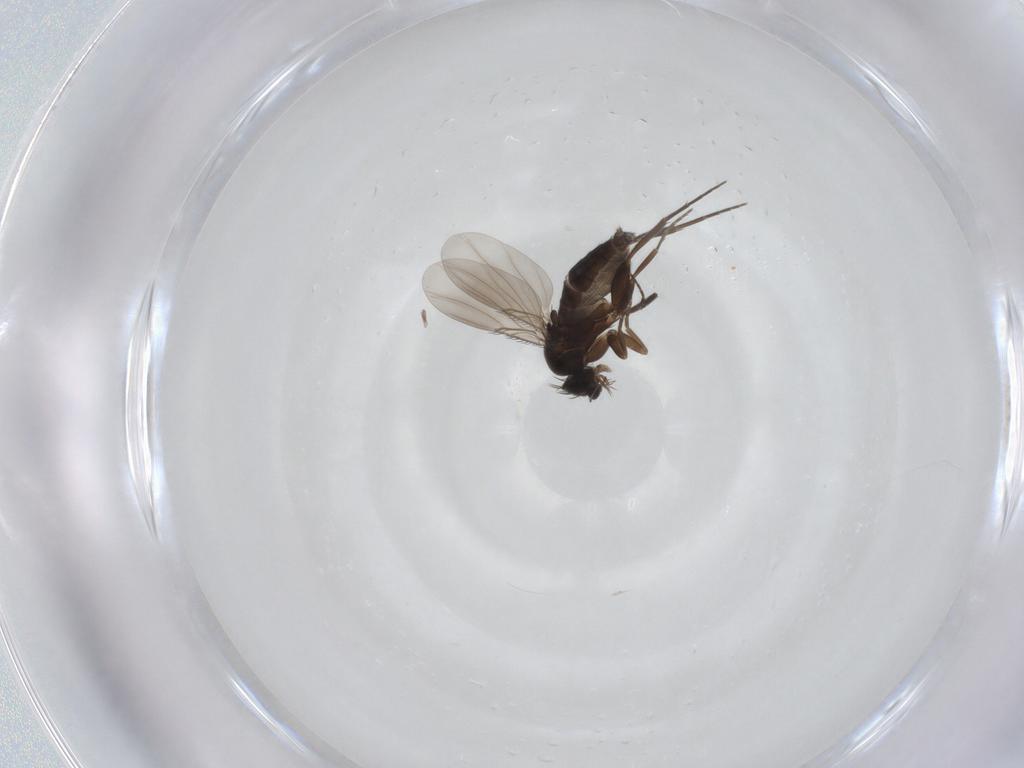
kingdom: Animalia
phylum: Arthropoda
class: Insecta
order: Diptera
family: Phoridae
